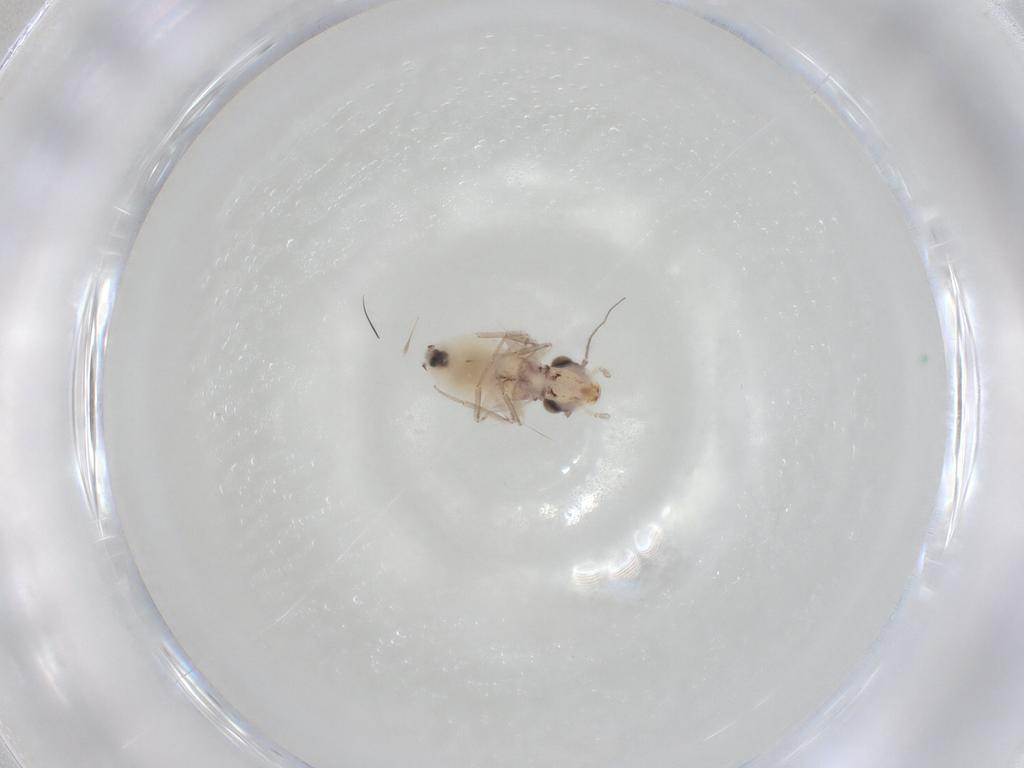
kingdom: Animalia
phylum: Arthropoda
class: Insecta
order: Psocodea
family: Lepidopsocidae
